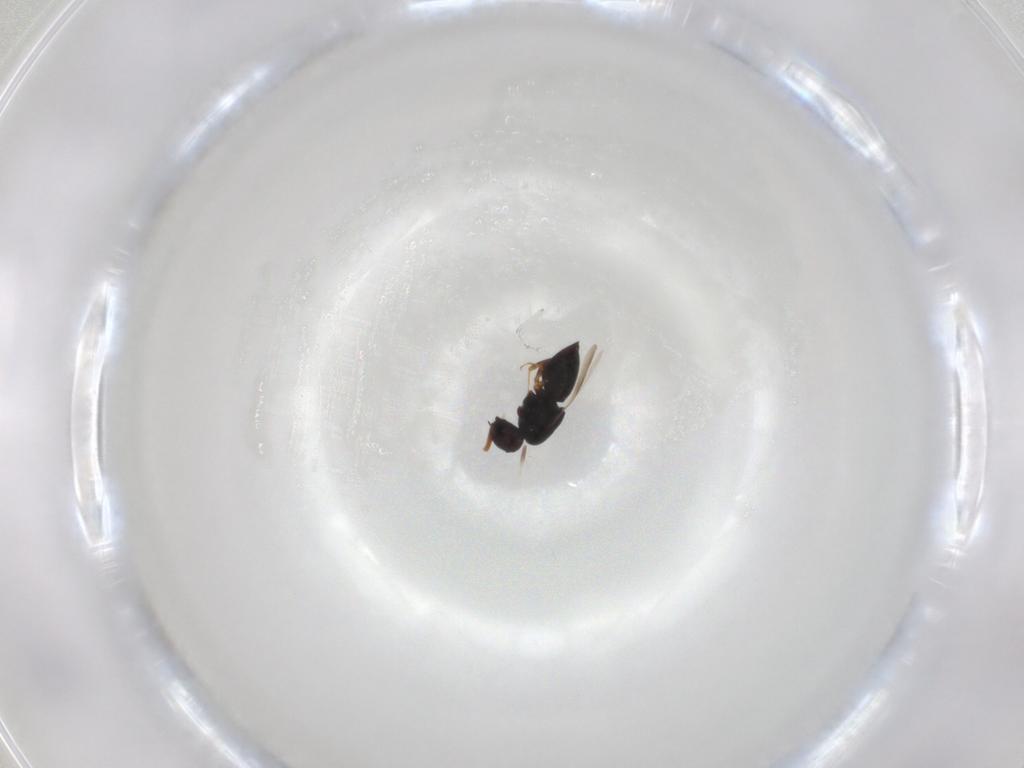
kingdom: Animalia
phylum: Arthropoda
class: Insecta
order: Hymenoptera
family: Ceraphronidae
